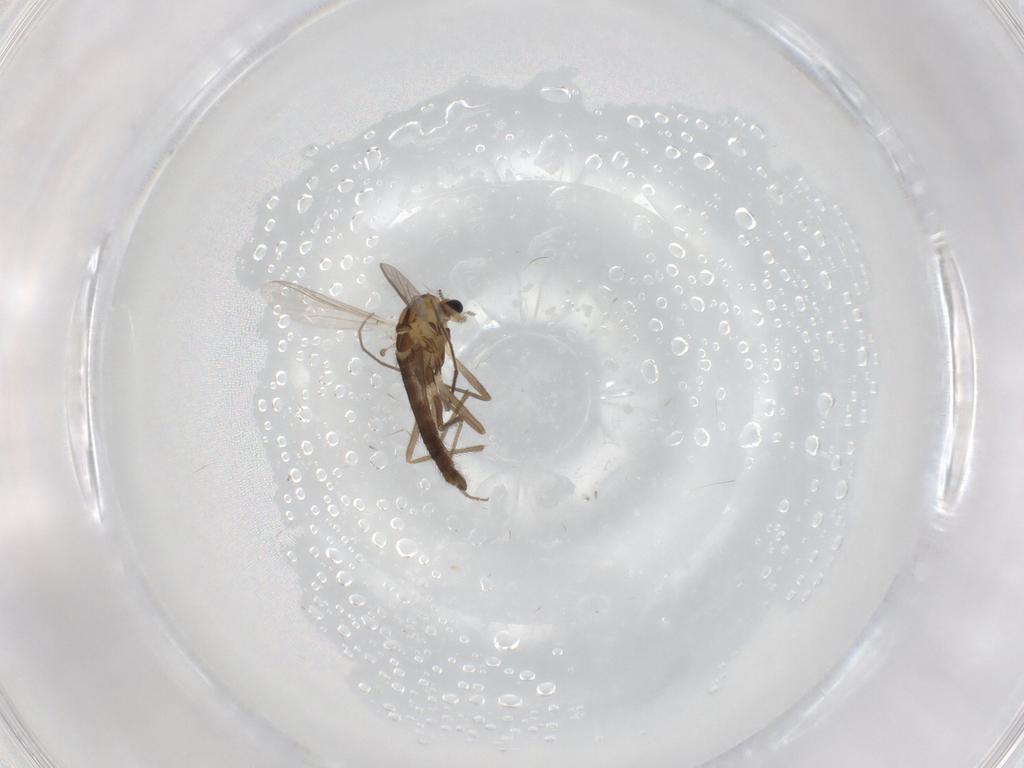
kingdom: Animalia
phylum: Arthropoda
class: Insecta
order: Diptera
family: Chironomidae
